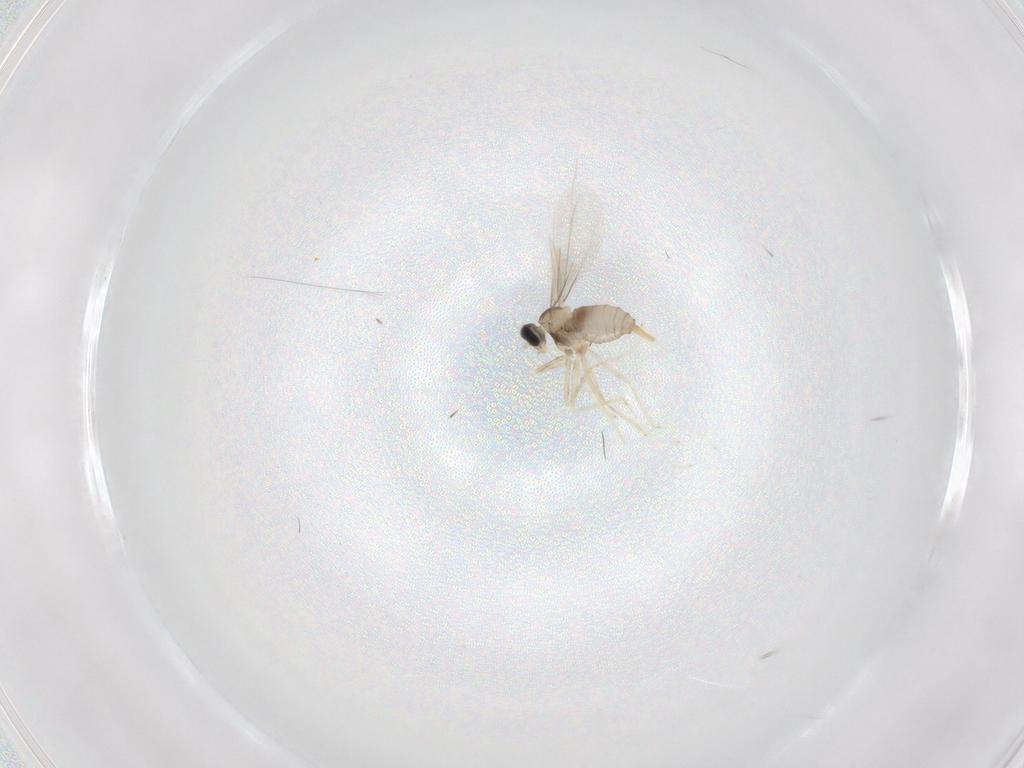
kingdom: Animalia
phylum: Arthropoda
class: Insecta
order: Diptera
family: Cecidomyiidae
